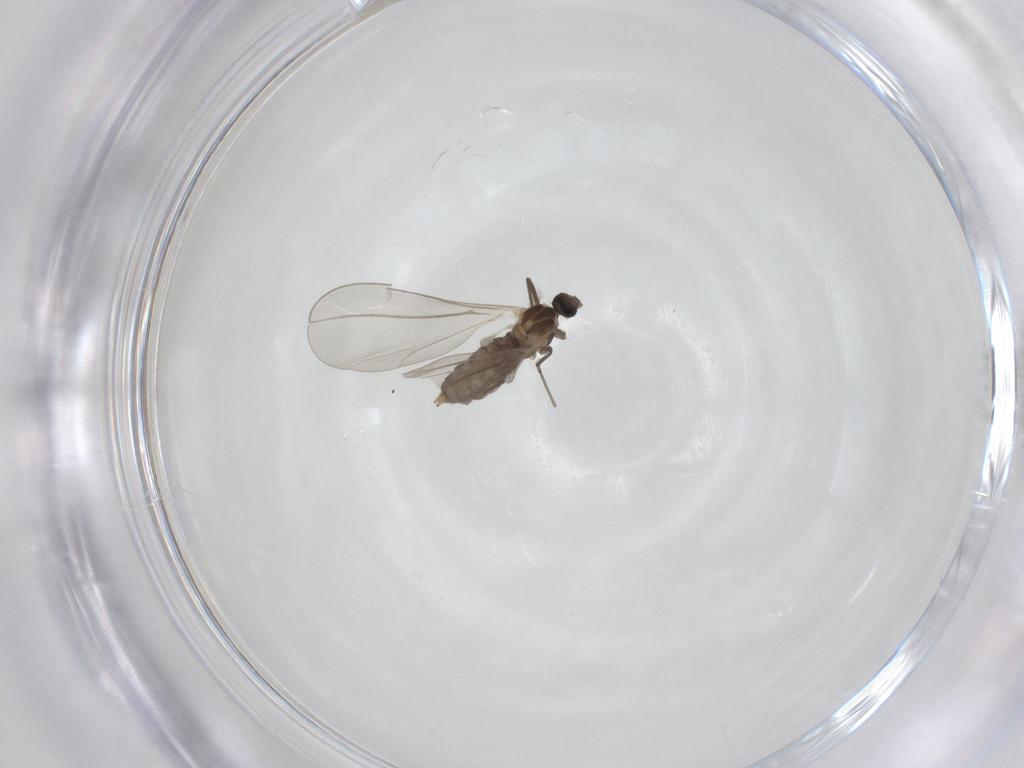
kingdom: Animalia
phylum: Arthropoda
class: Insecta
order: Diptera
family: Cecidomyiidae
